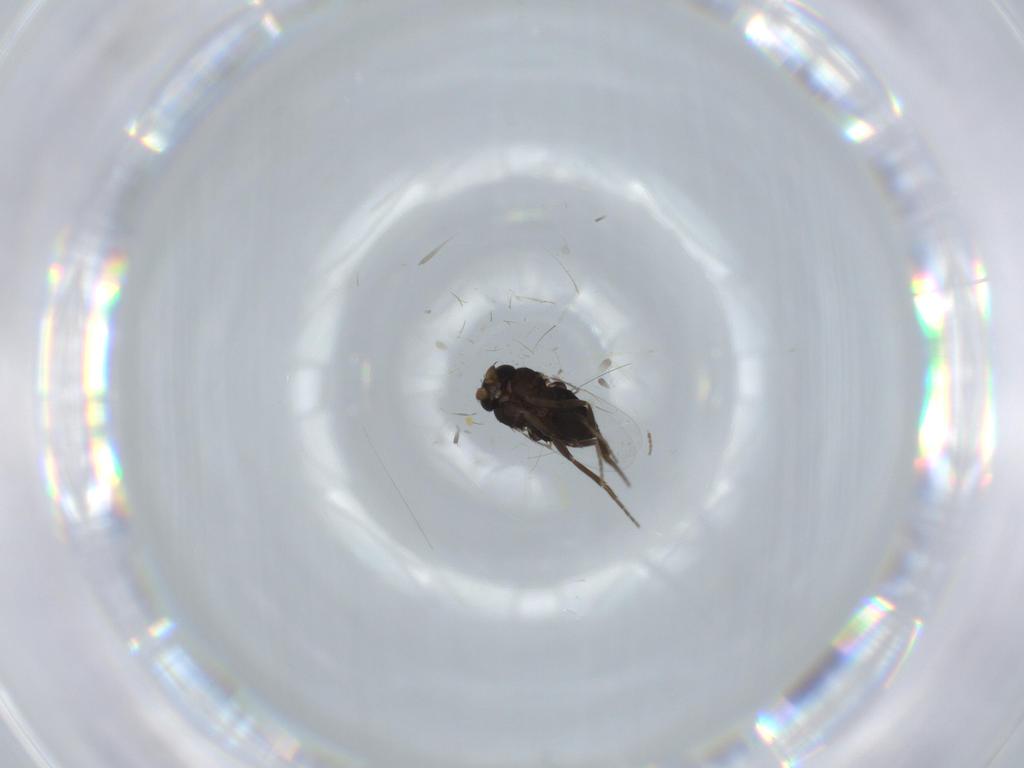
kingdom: Animalia
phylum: Arthropoda
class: Insecta
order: Diptera
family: Phoridae
